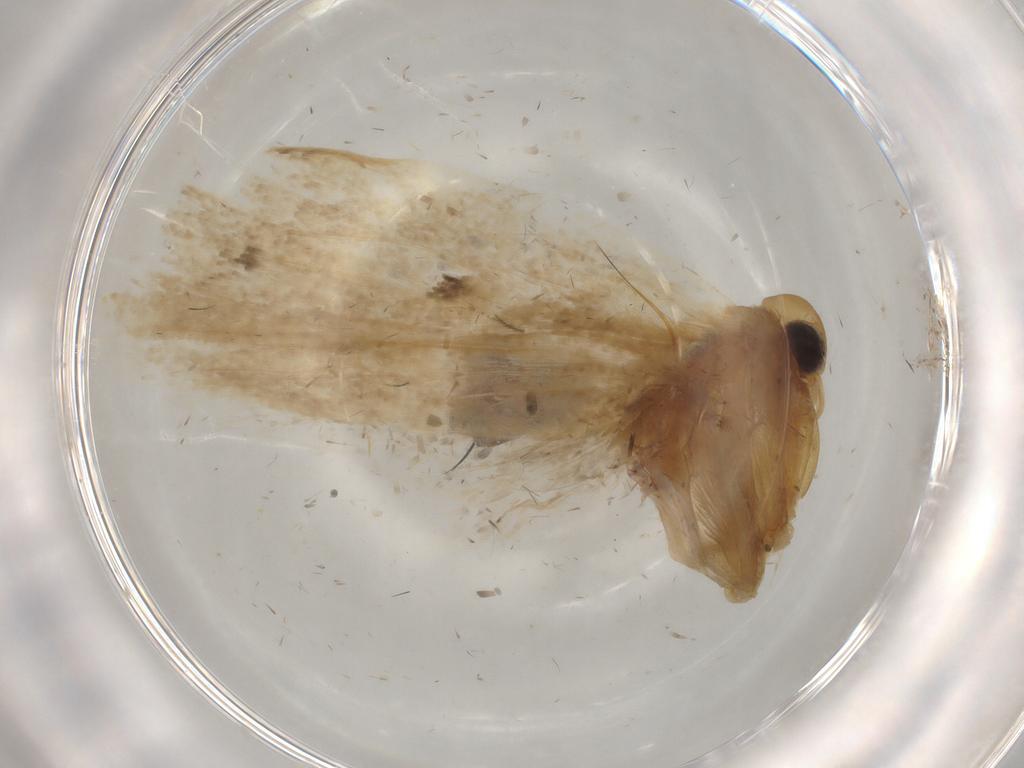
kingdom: Animalia
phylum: Arthropoda
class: Insecta
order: Lepidoptera
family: Lecithoceridae
